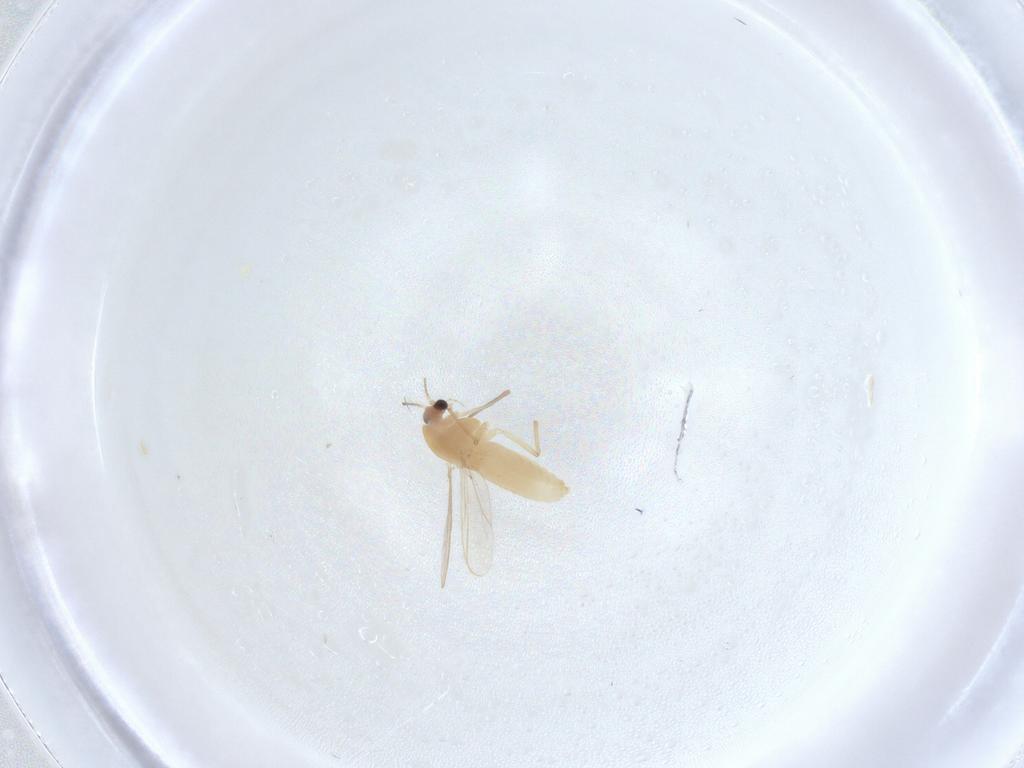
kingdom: Animalia
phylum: Arthropoda
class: Insecta
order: Diptera
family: Chironomidae
